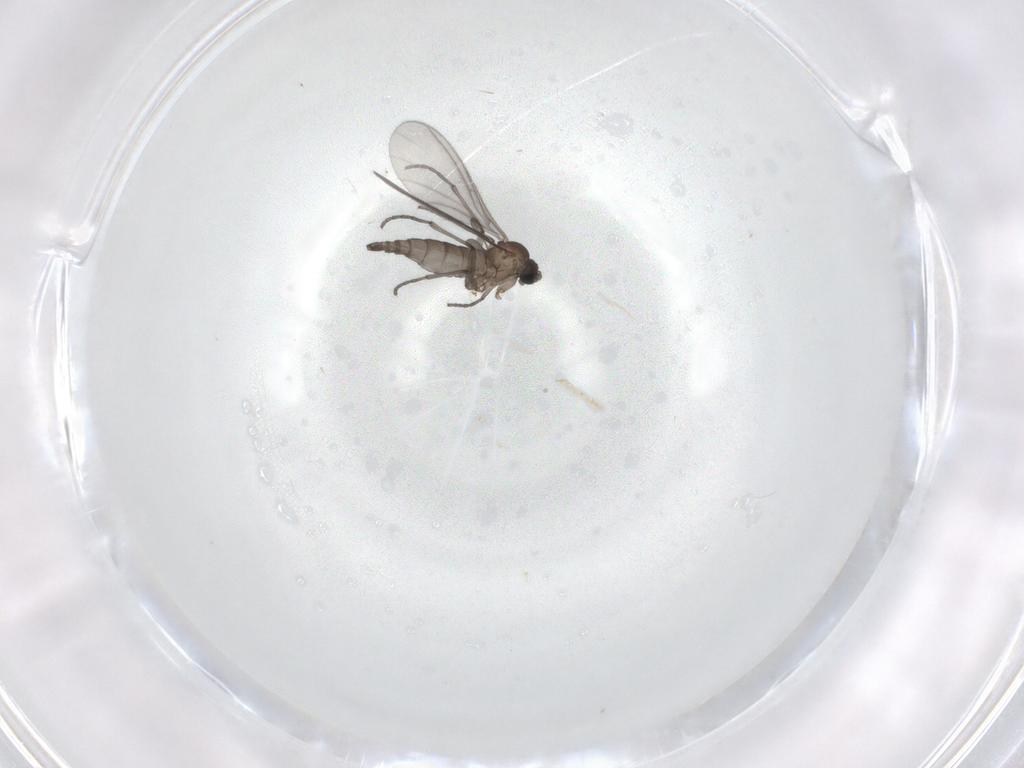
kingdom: Animalia
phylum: Arthropoda
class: Insecta
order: Diptera
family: Sciaridae
